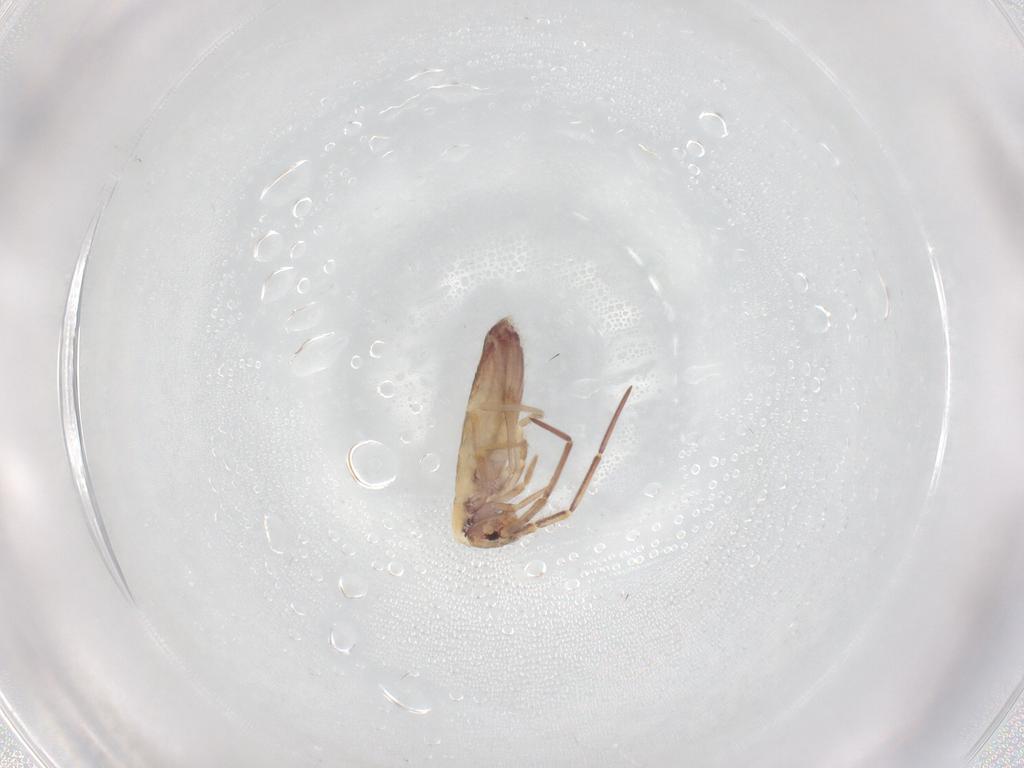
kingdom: Animalia
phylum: Arthropoda
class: Collembola
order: Entomobryomorpha
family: Entomobryidae
